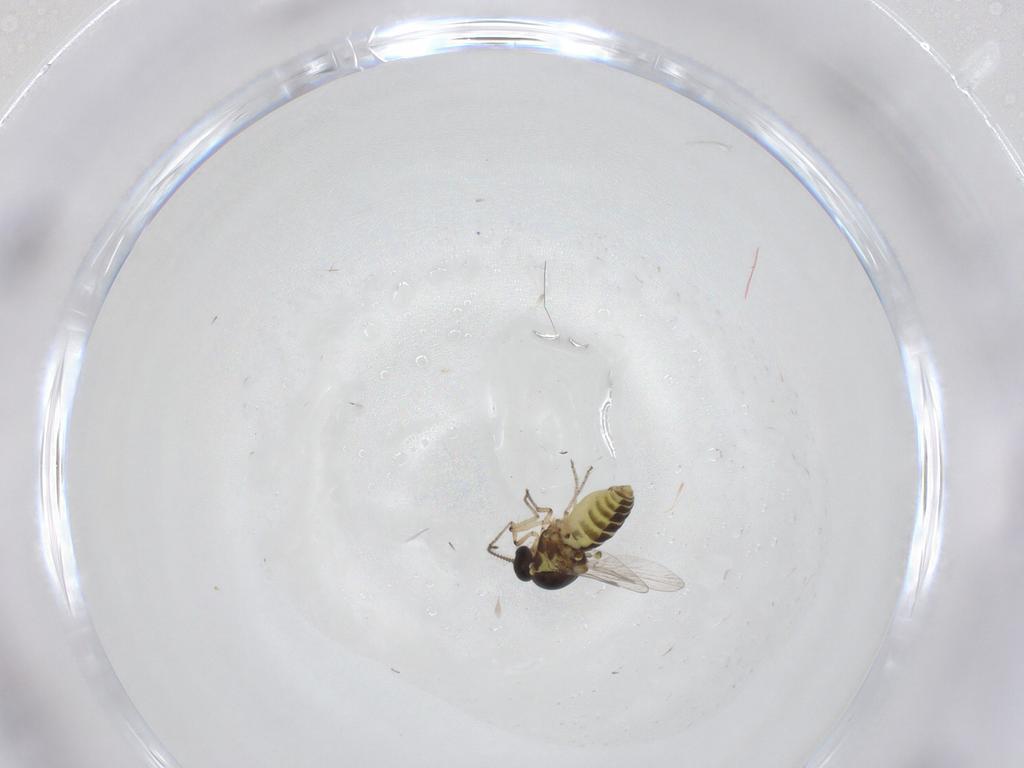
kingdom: Animalia
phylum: Arthropoda
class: Insecta
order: Diptera
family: Ceratopogonidae
